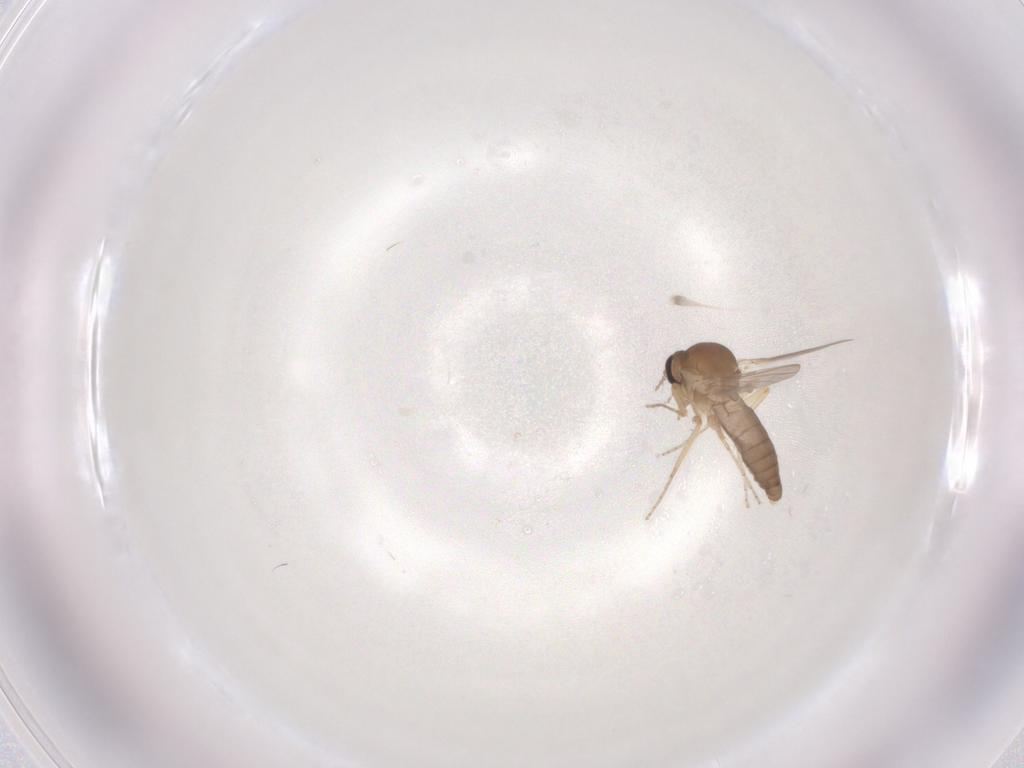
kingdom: Animalia
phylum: Arthropoda
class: Insecta
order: Diptera
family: Ceratopogonidae
